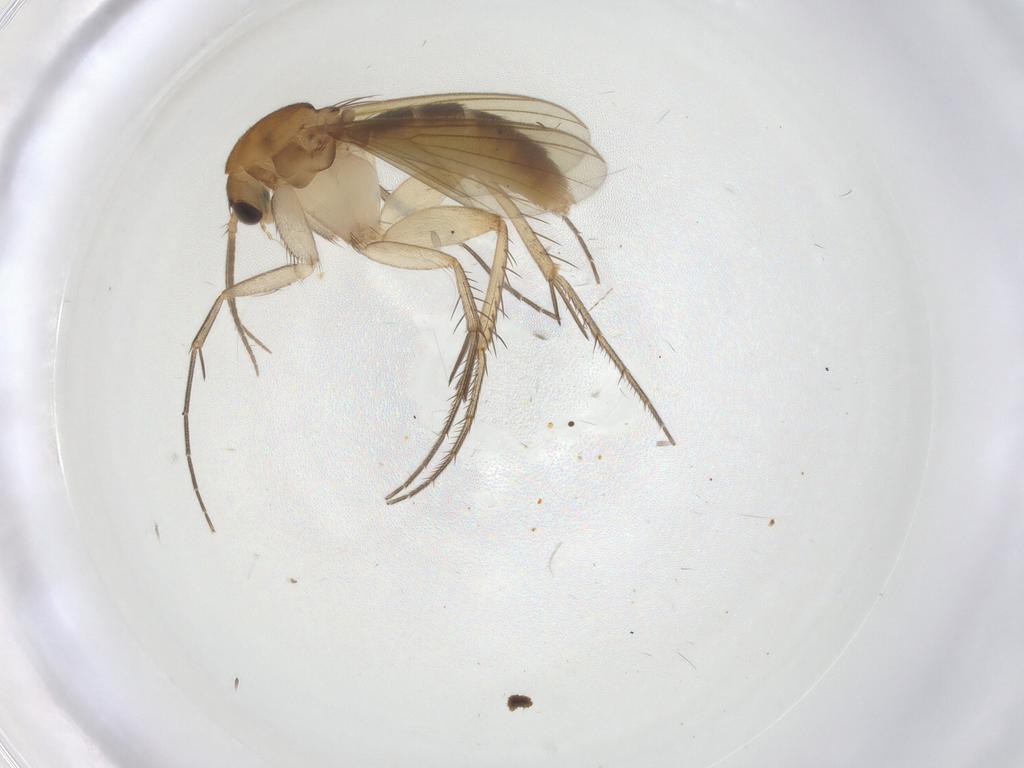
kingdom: Animalia
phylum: Arthropoda
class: Insecta
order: Diptera
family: Mycetophilidae
